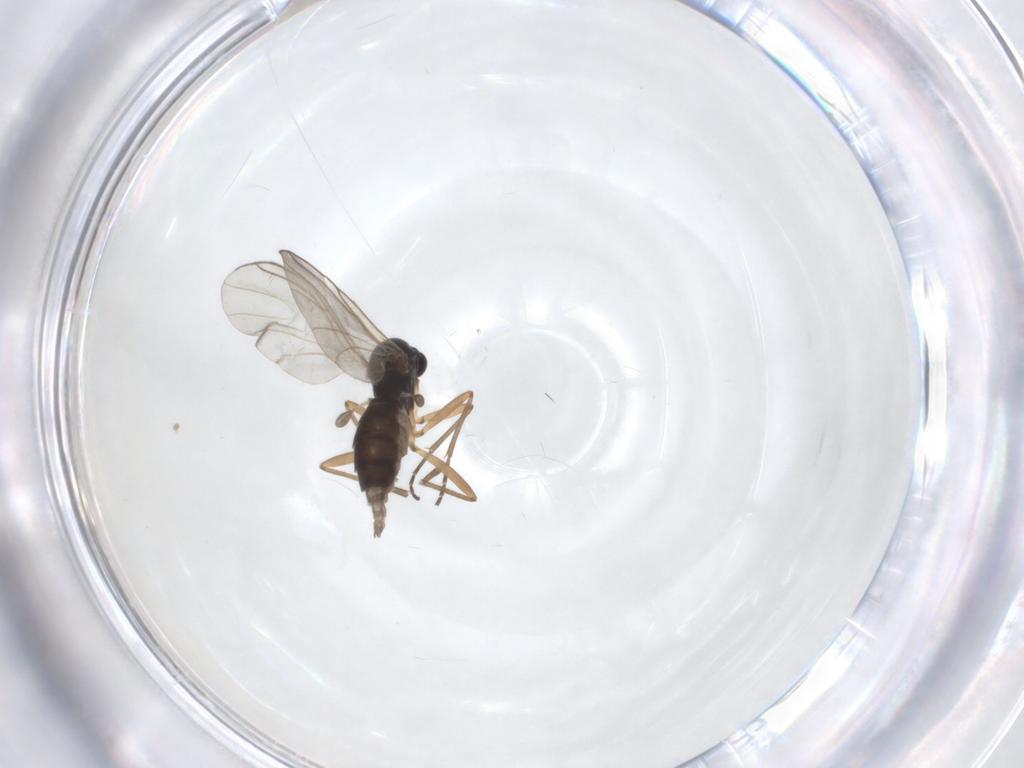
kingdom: Animalia
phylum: Arthropoda
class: Insecta
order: Diptera
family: Sciaridae
